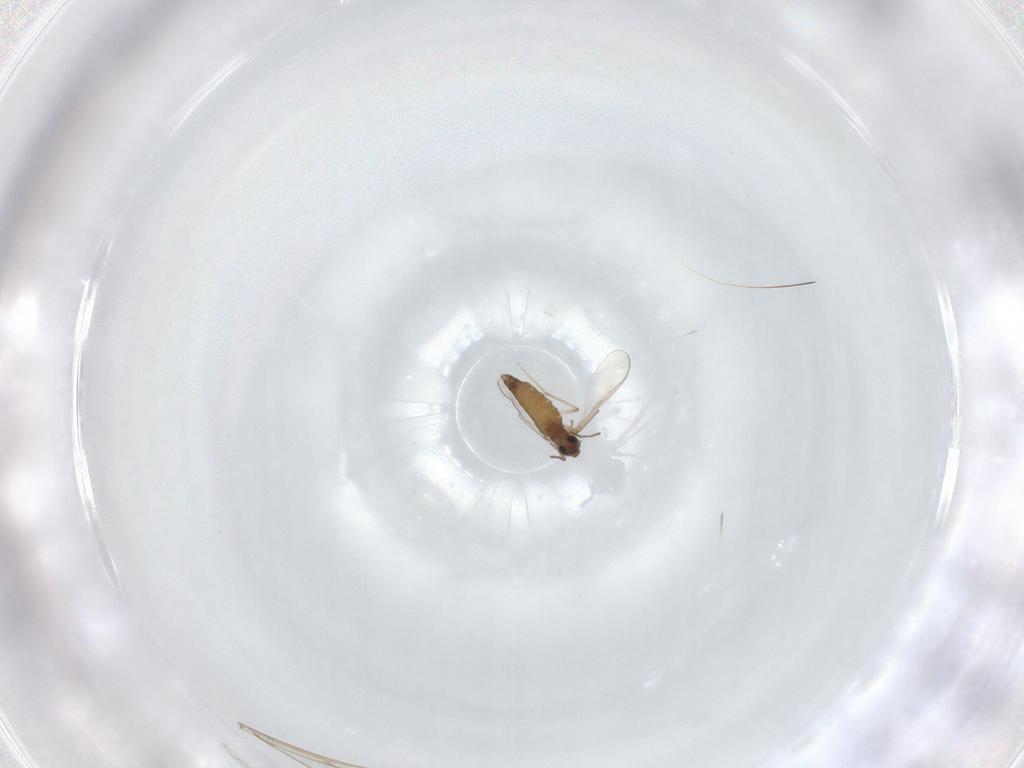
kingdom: Animalia
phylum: Arthropoda
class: Insecta
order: Diptera
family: Chironomidae
